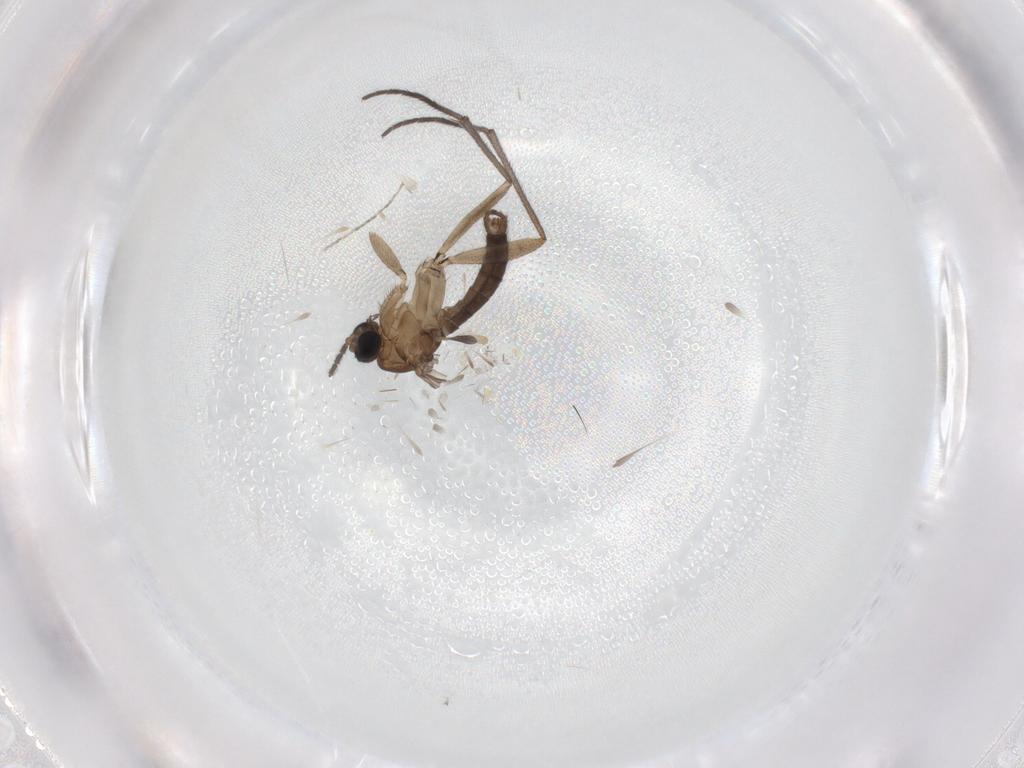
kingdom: Animalia
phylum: Arthropoda
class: Insecta
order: Diptera
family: Sciaridae
